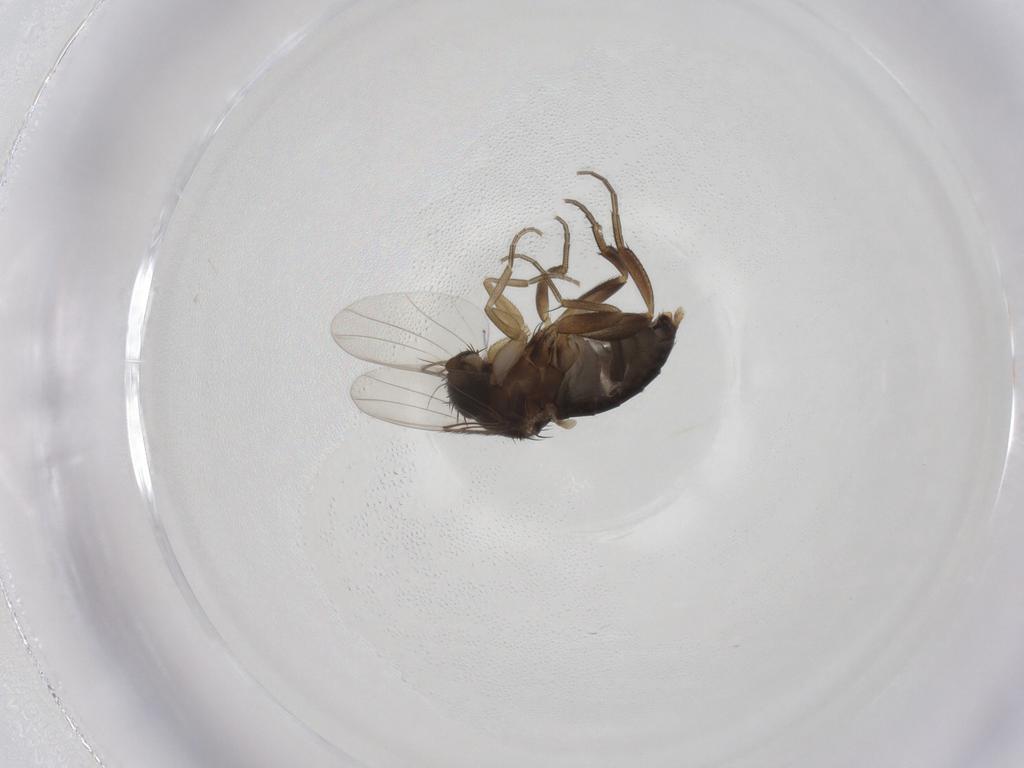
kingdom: Animalia
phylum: Arthropoda
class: Insecta
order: Diptera
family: Phoridae
